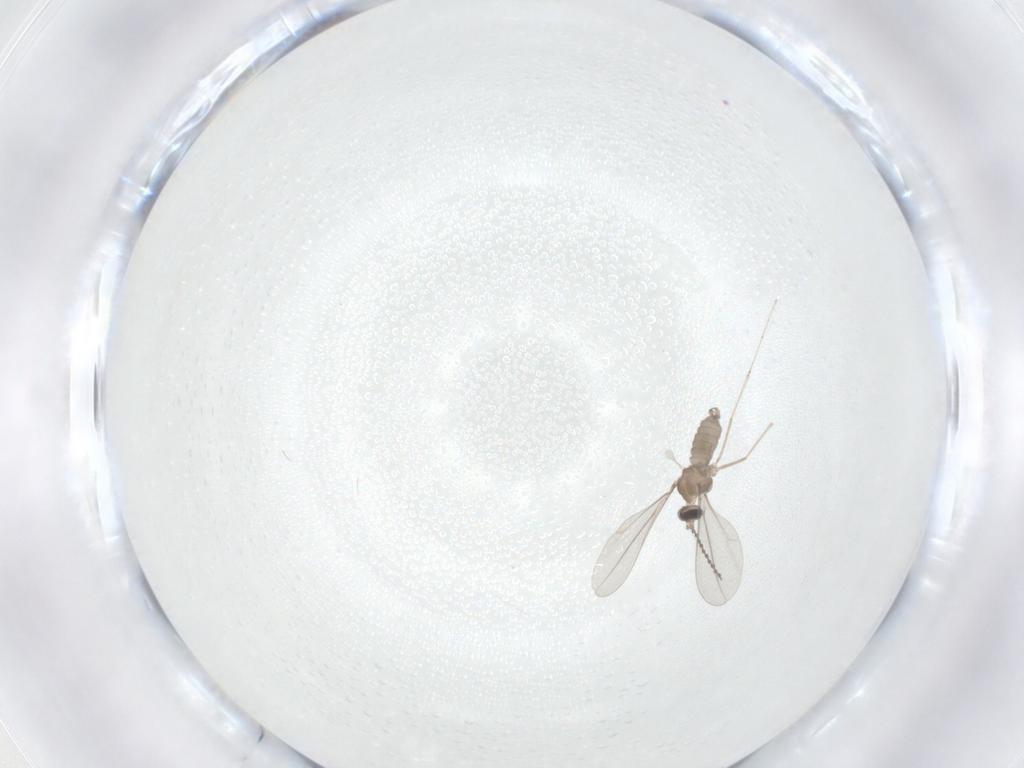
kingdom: Animalia
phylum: Arthropoda
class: Insecta
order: Diptera
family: Cecidomyiidae
